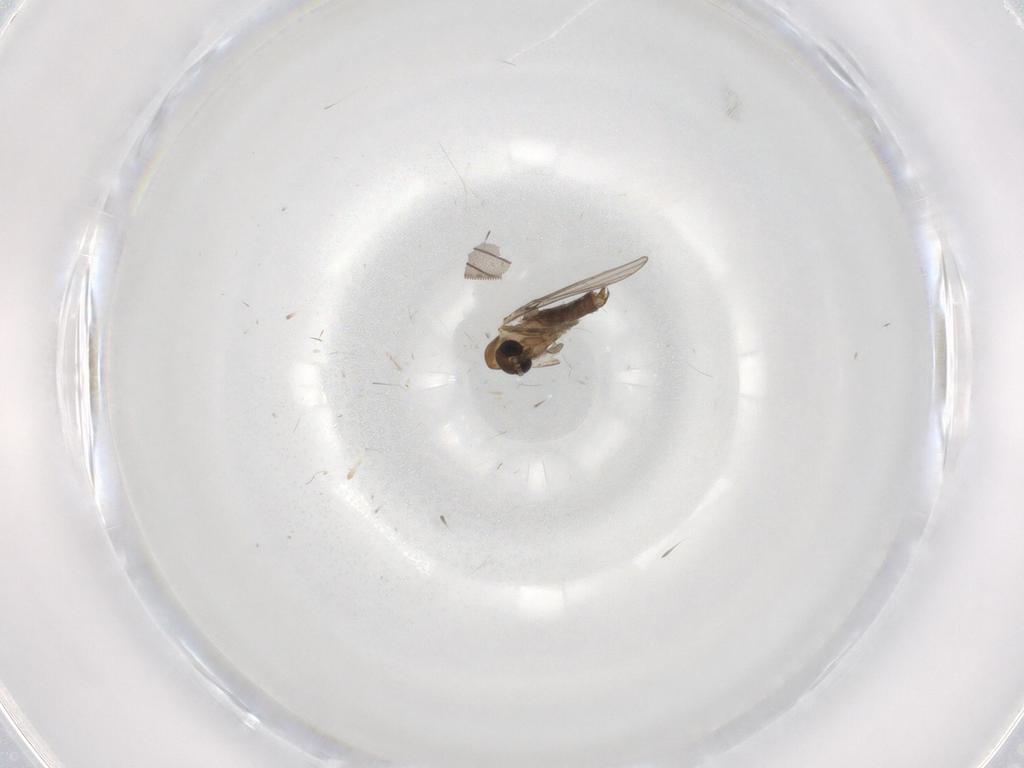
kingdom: Animalia
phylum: Arthropoda
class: Insecta
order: Diptera
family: Psychodidae
